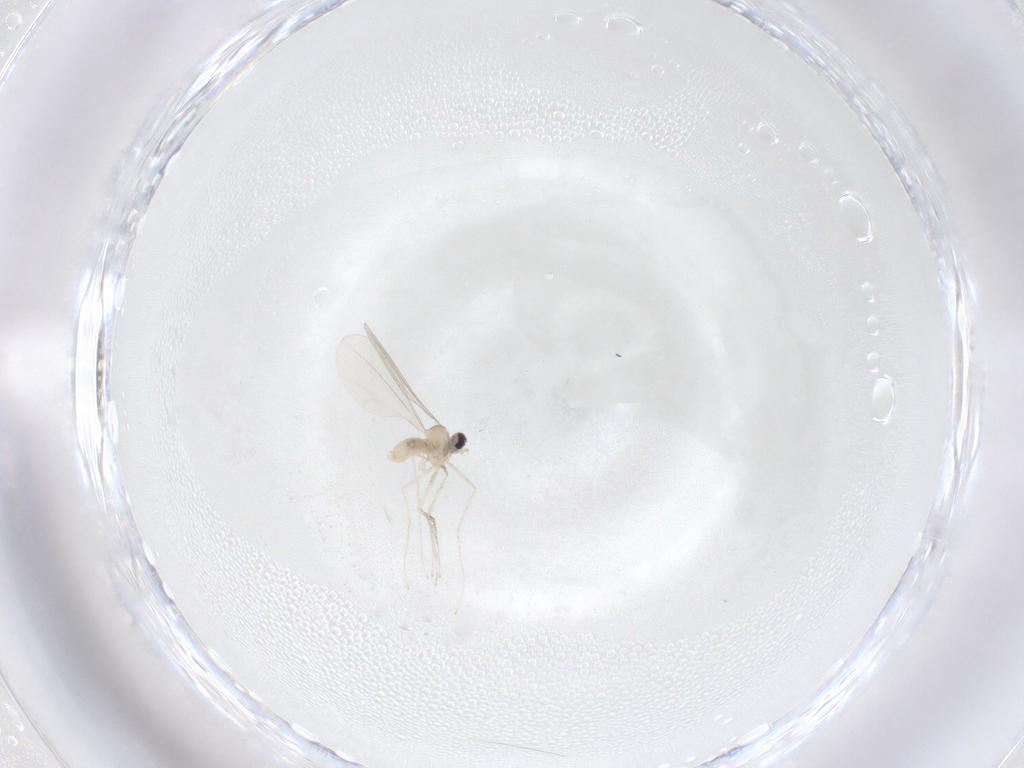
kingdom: Animalia
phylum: Arthropoda
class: Insecta
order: Diptera
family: Cecidomyiidae
